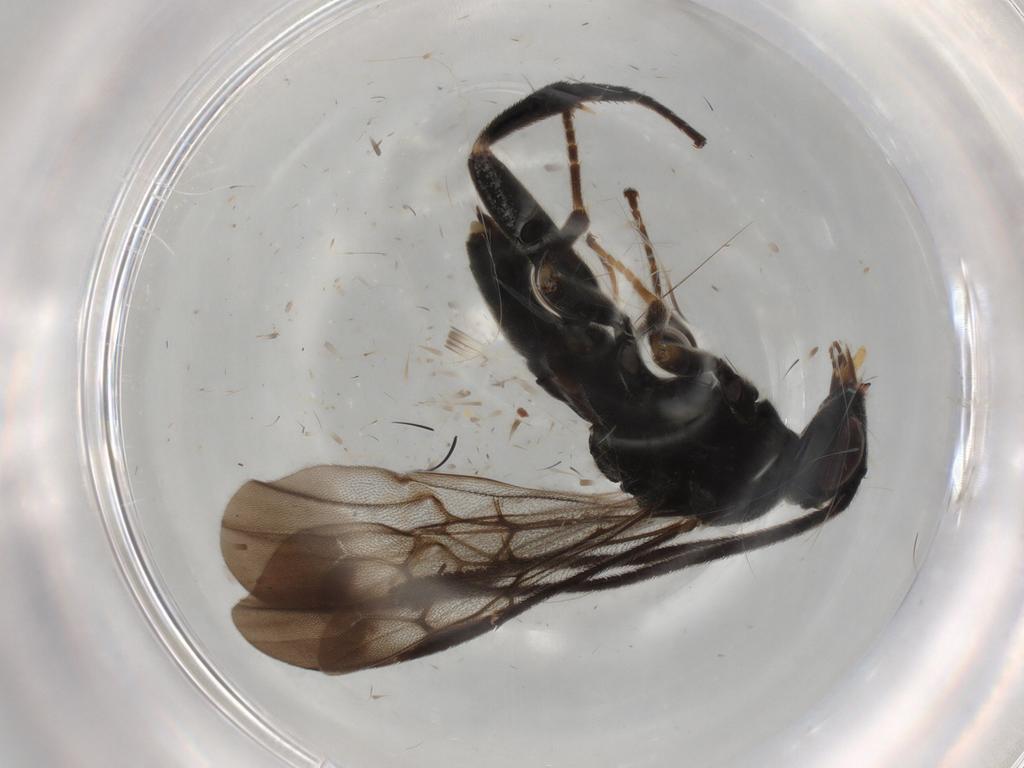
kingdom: Animalia
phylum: Arthropoda
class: Insecta
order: Hymenoptera
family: Braconidae
